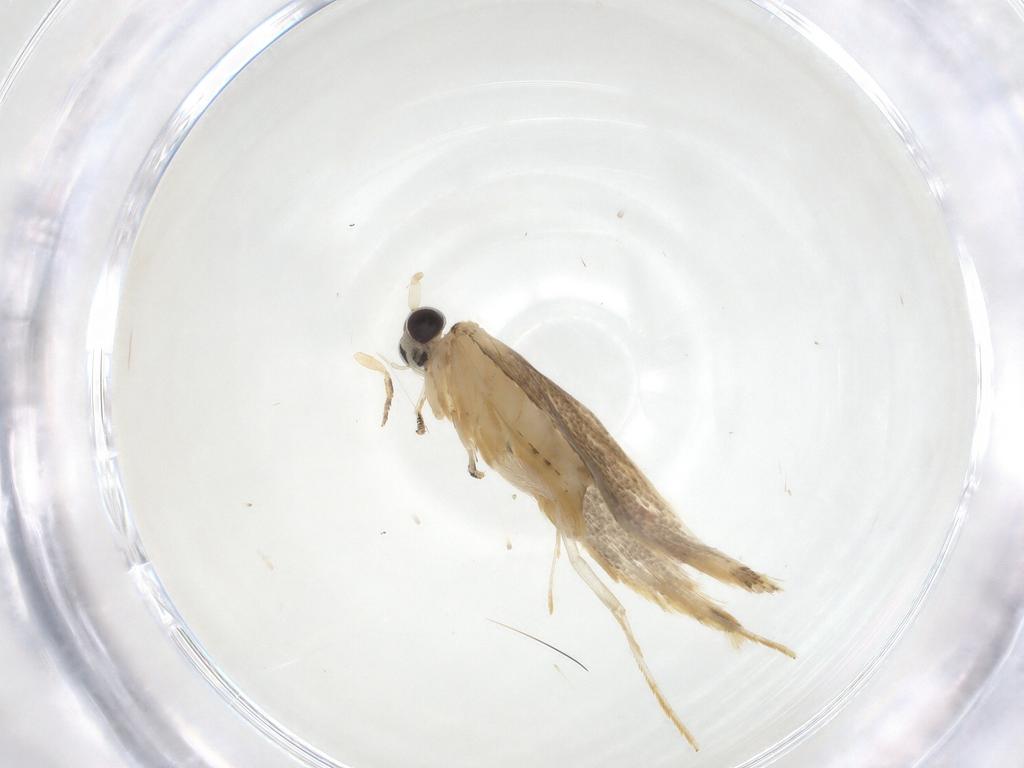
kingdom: Animalia
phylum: Arthropoda
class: Insecta
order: Lepidoptera
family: Nepticulidae
